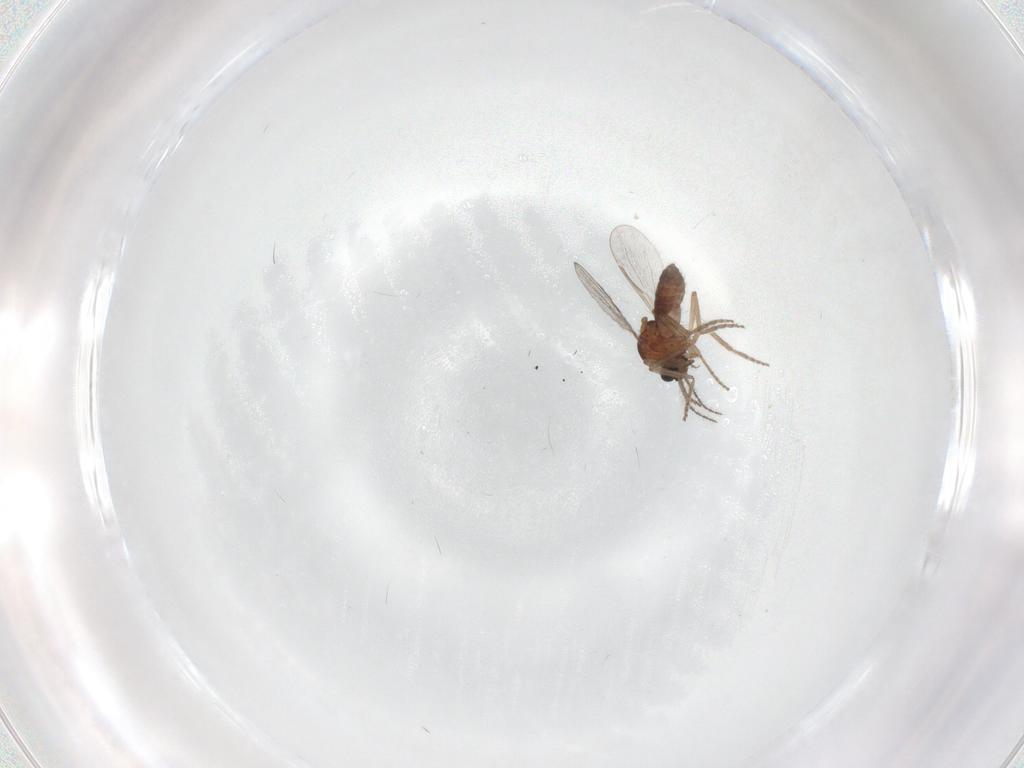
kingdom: Animalia
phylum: Arthropoda
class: Insecta
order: Diptera
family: Ceratopogonidae
